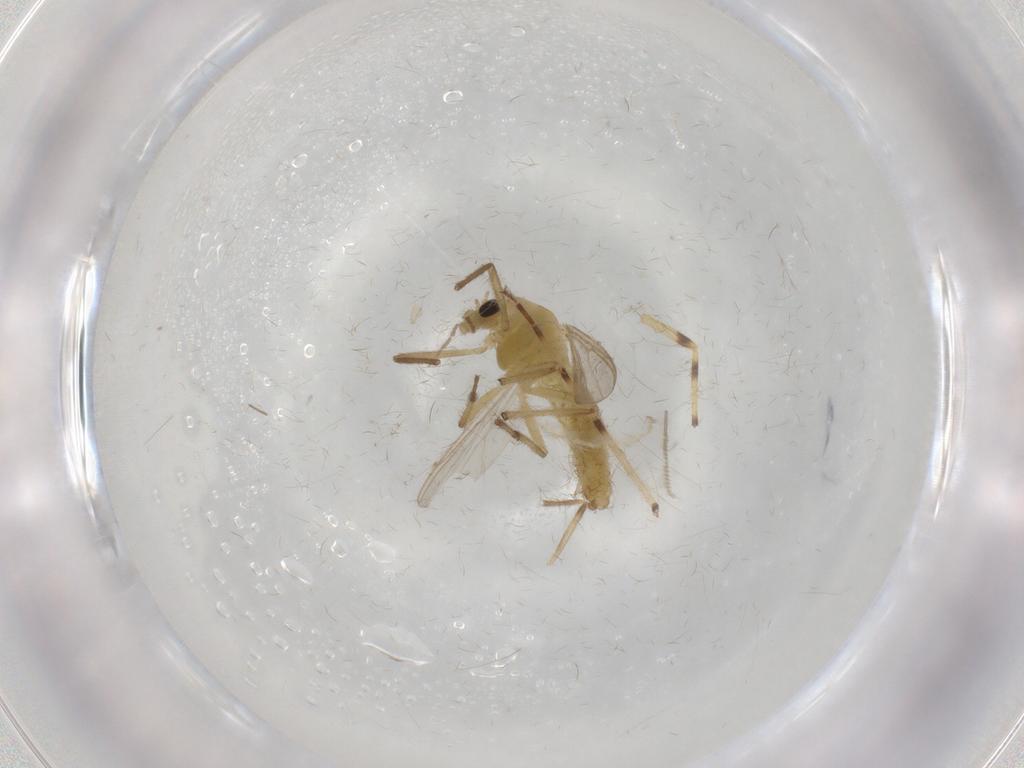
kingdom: Animalia
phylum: Arthropoda
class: Insecta
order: Diptera
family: Chironomidae
